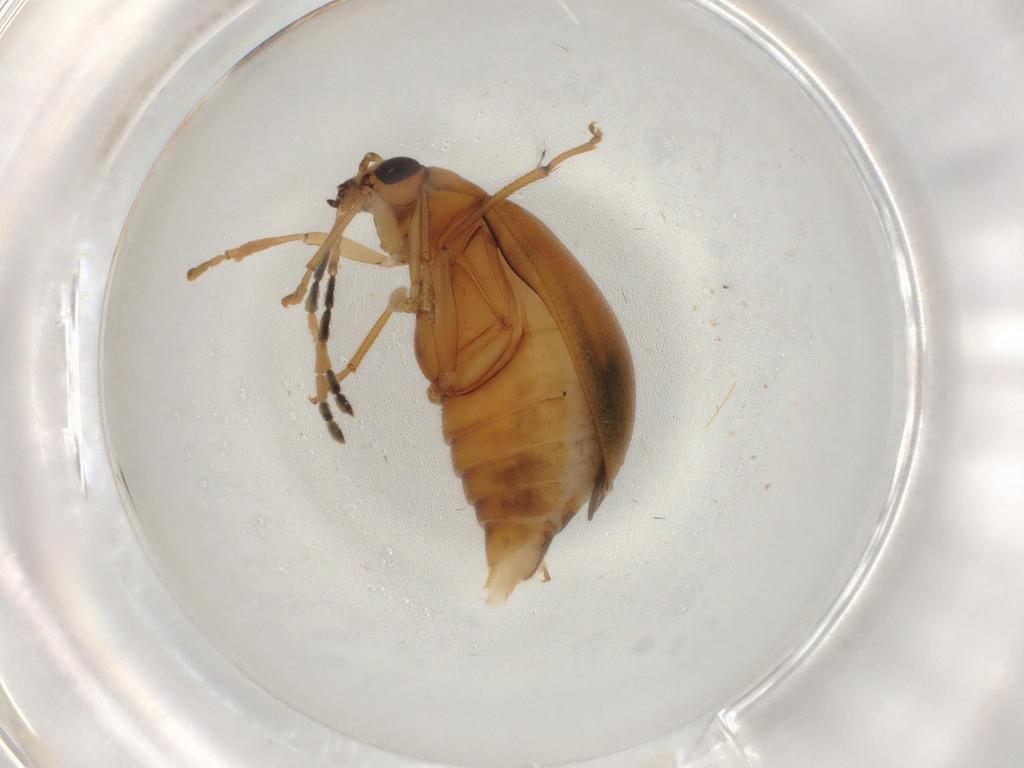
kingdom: Animalia
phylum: Arthropoda
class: Insecta
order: Coleoptera
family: Chrysomelidae
